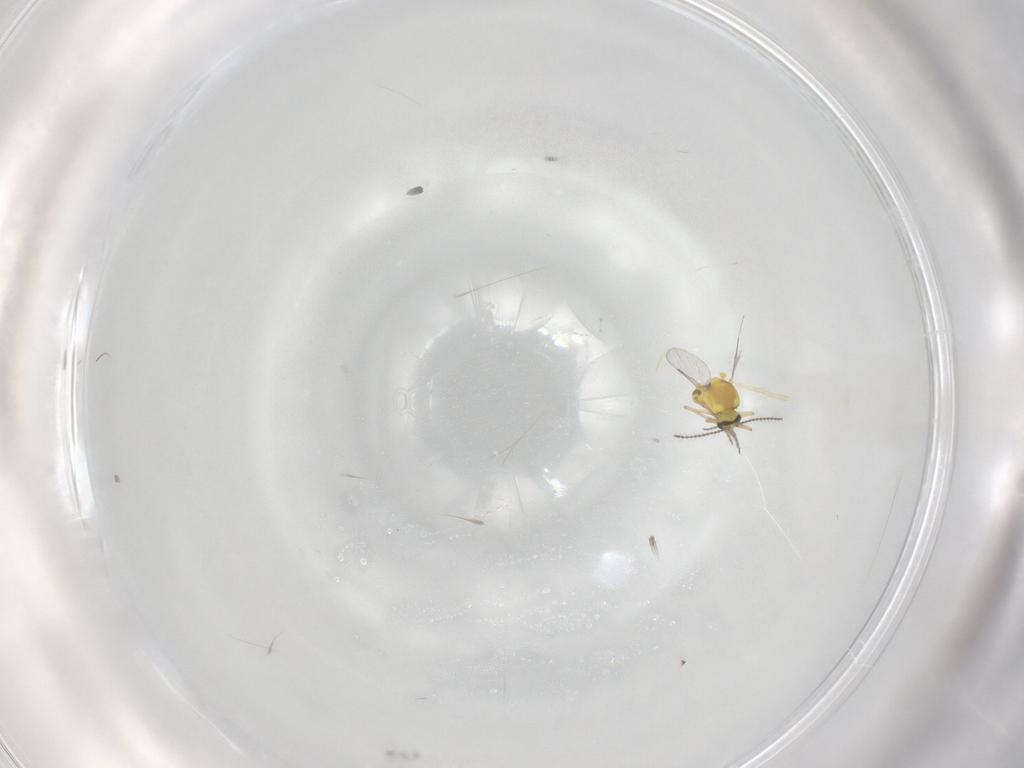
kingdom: Animalia
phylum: Arthropoda
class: Insecta
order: Diptera
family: Ceratopogonidae
